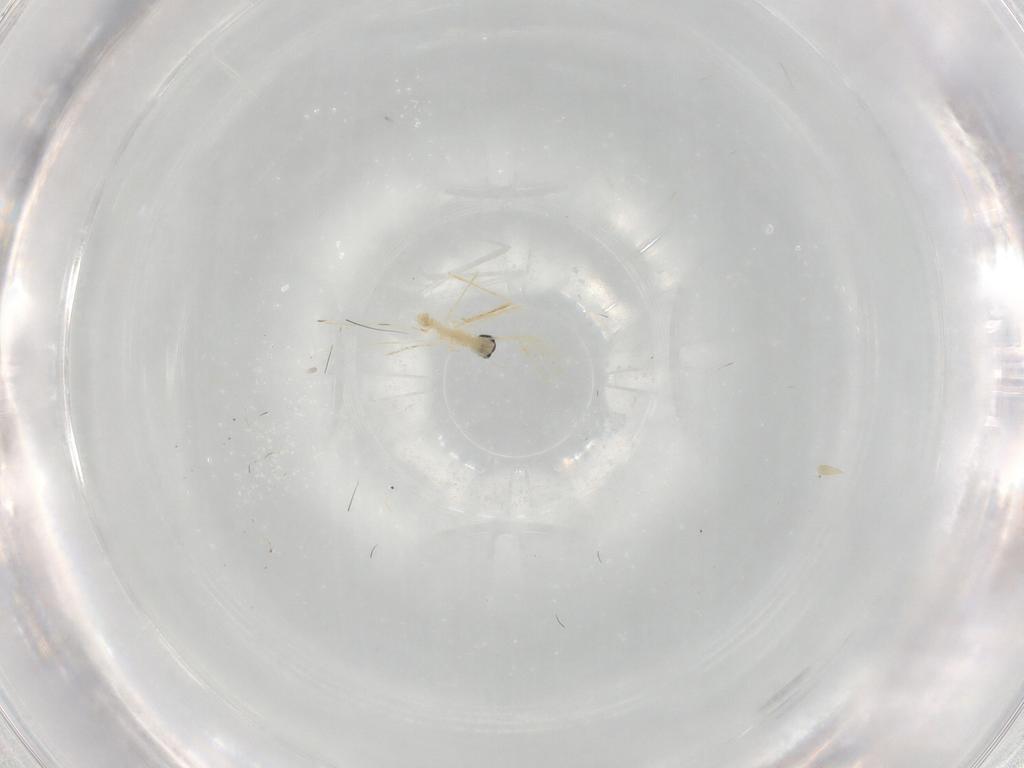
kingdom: Animalia
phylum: Arthropoda
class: Insecta
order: Diptera
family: Cecidomyiidae
